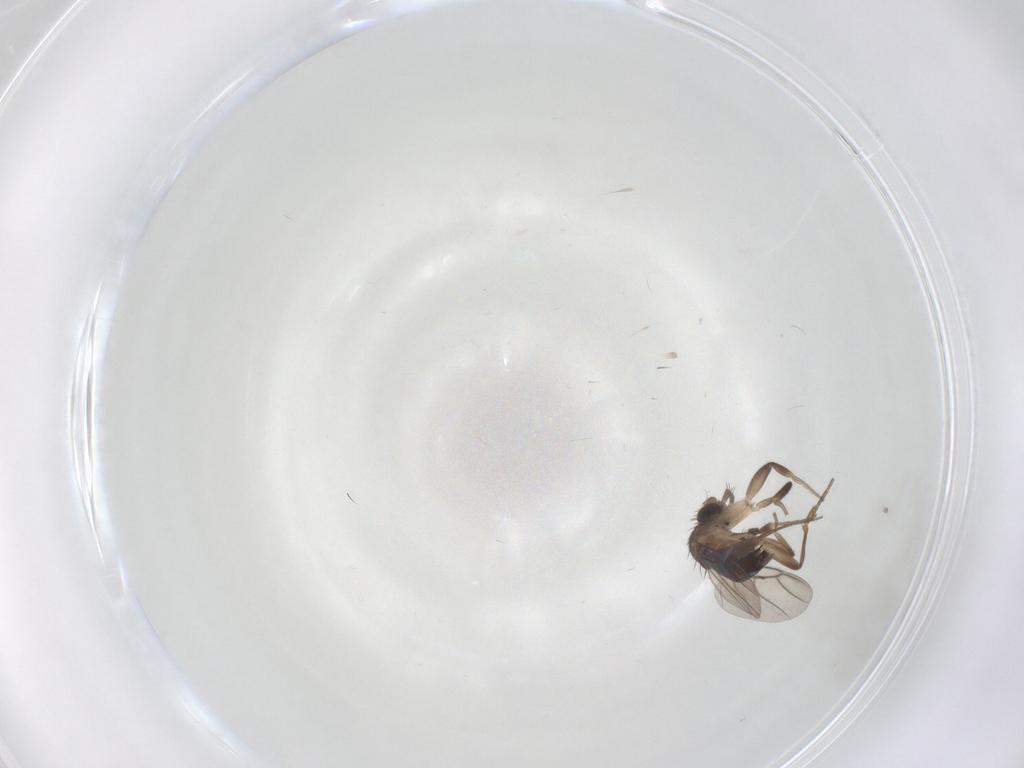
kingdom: Animalia
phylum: Arthropoda
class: Insecta
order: Diptera
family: Phoridae
